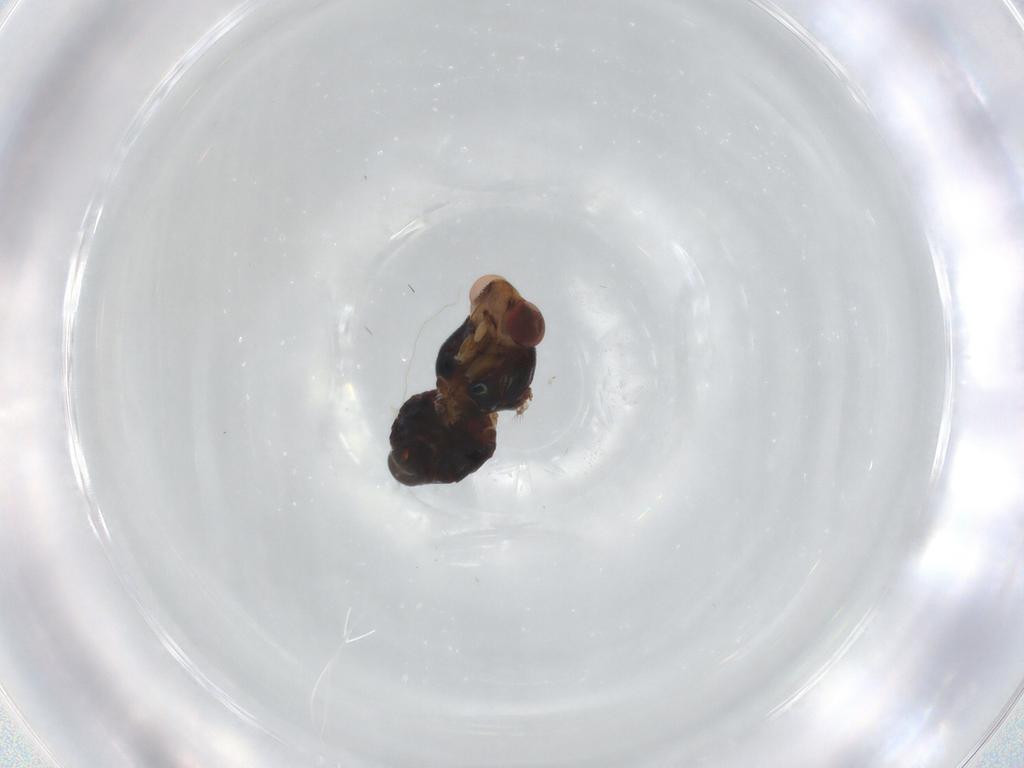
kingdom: Animalia
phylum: Arthropoda
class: Insecta
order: Diptera
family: Chloropidae
